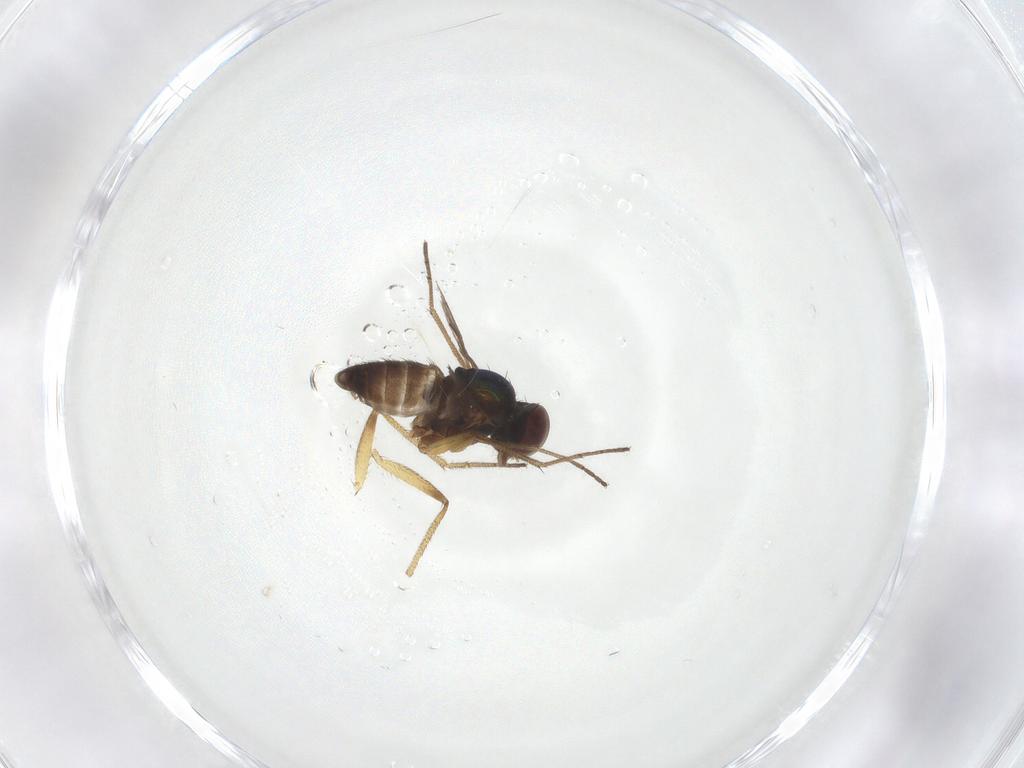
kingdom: Animalia
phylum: Arthropoda
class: Insecta
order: Diptera
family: Dolichopodidae
